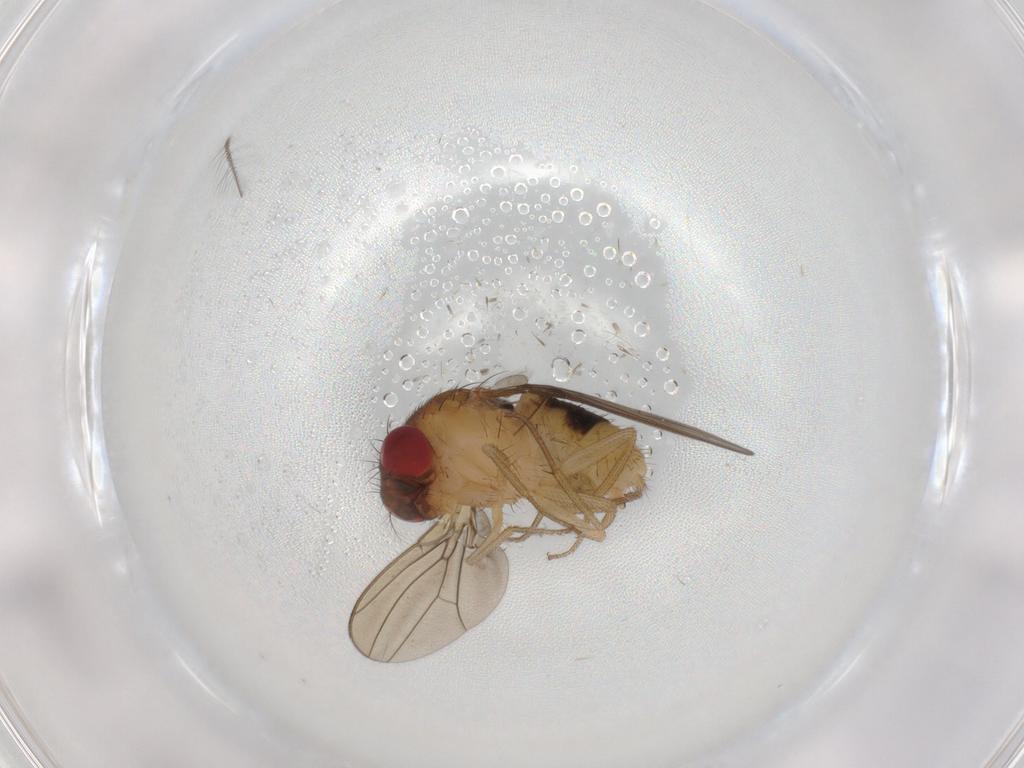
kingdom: Animalia
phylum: Arthropoda
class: Insecta
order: Diptera
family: Drosophilidae
